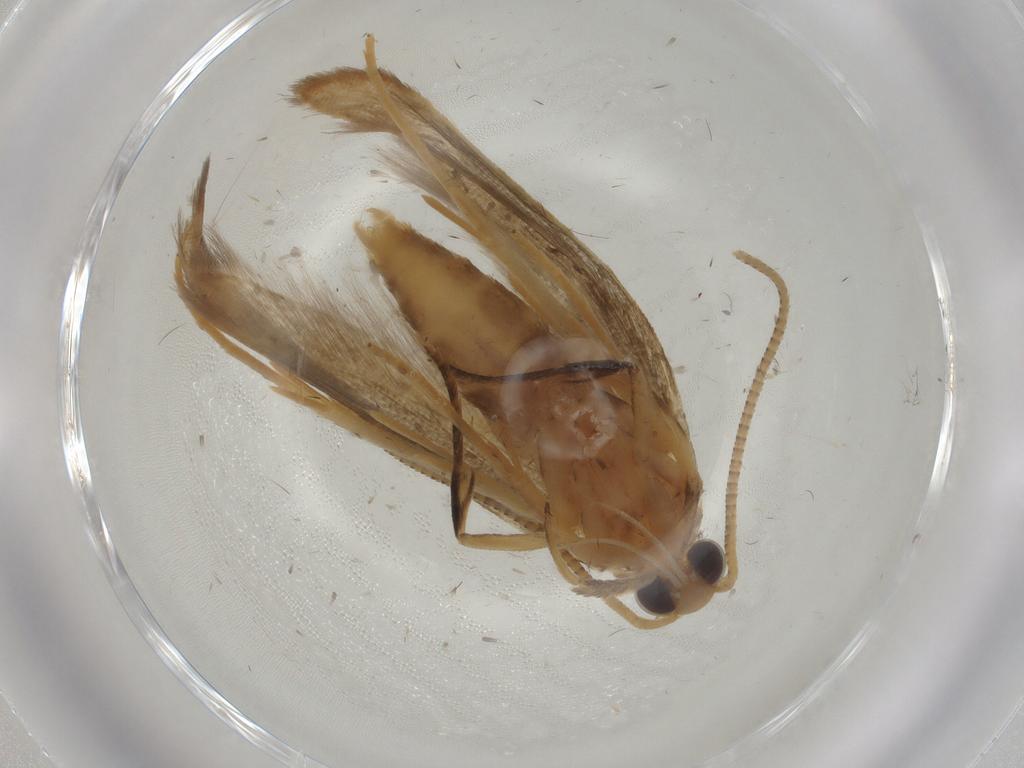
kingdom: Animalia
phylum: Arthropoda
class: Insecta
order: Lepidoptera
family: Nolidae
